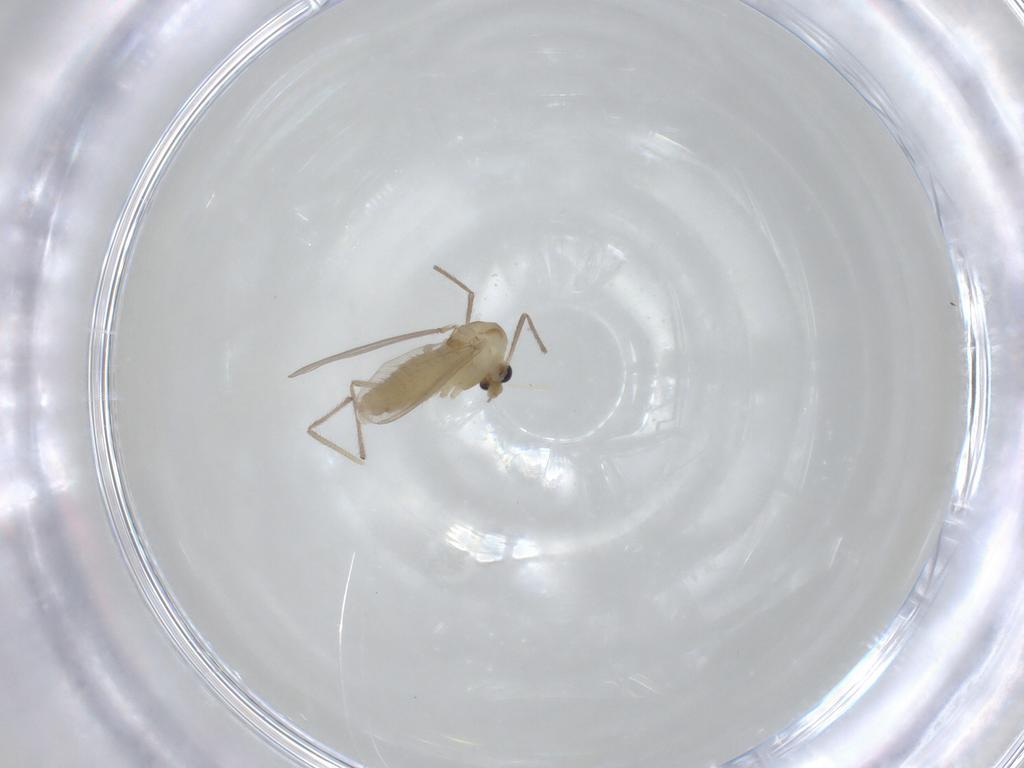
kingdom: Animalia
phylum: Arthropoda
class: Insecta
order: Diptera
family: Chironomidae
